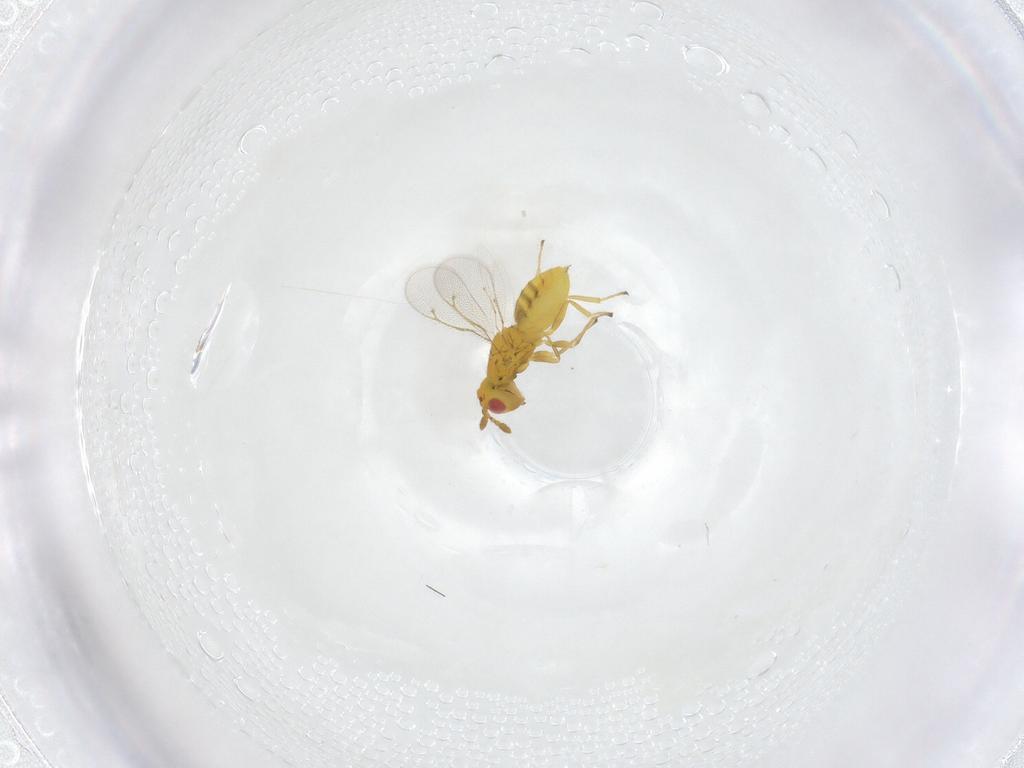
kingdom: Animalia
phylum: Arthropoda
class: Insecta
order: Hymenoptera
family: Eulophidae
